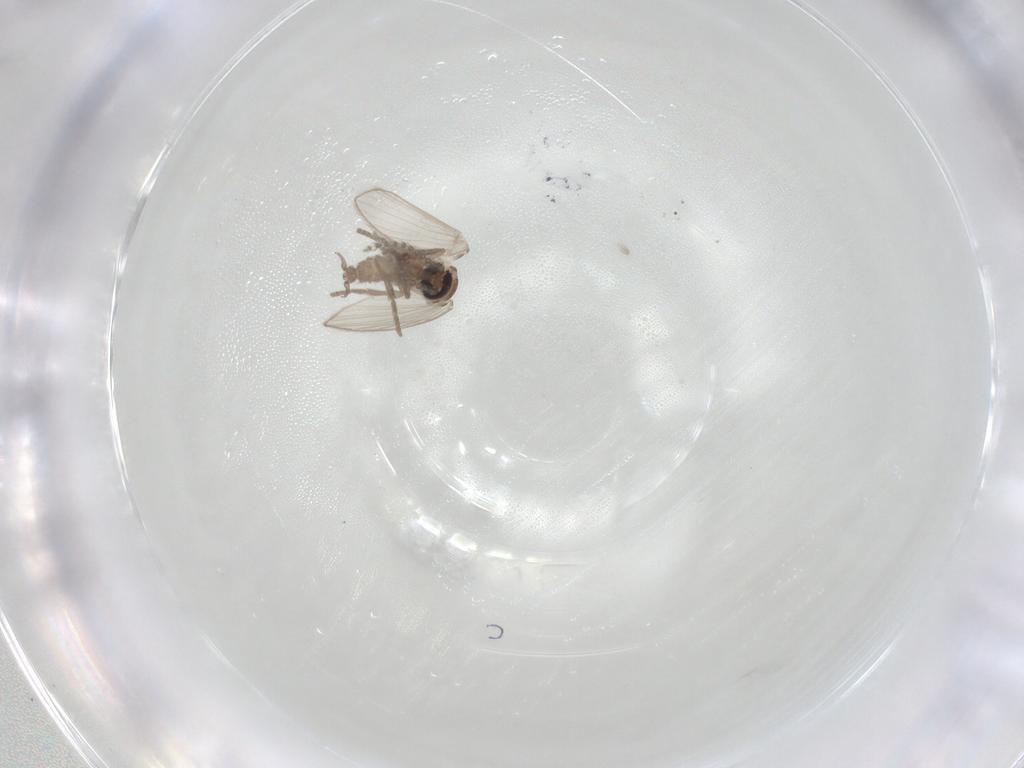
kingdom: Animalia
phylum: Arthropoda
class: Insecta
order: Diptera
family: Psychodidae
